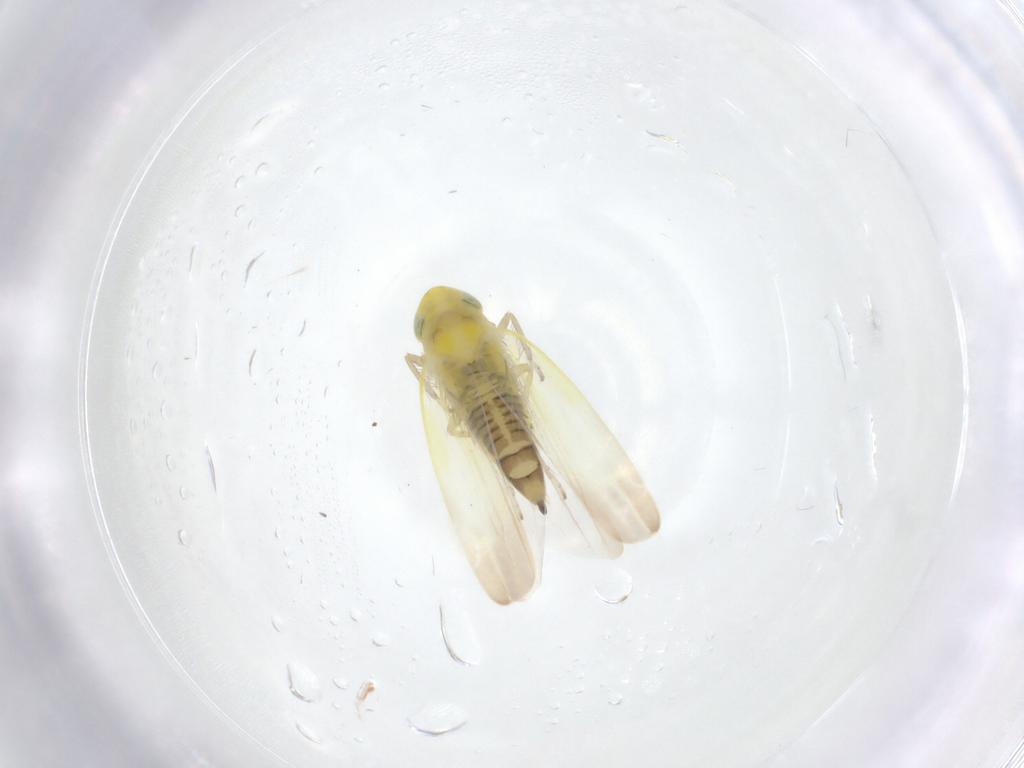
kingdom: Animalia
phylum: Arthropoda
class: Insecta
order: Hemiptera
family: Cicadellidae
